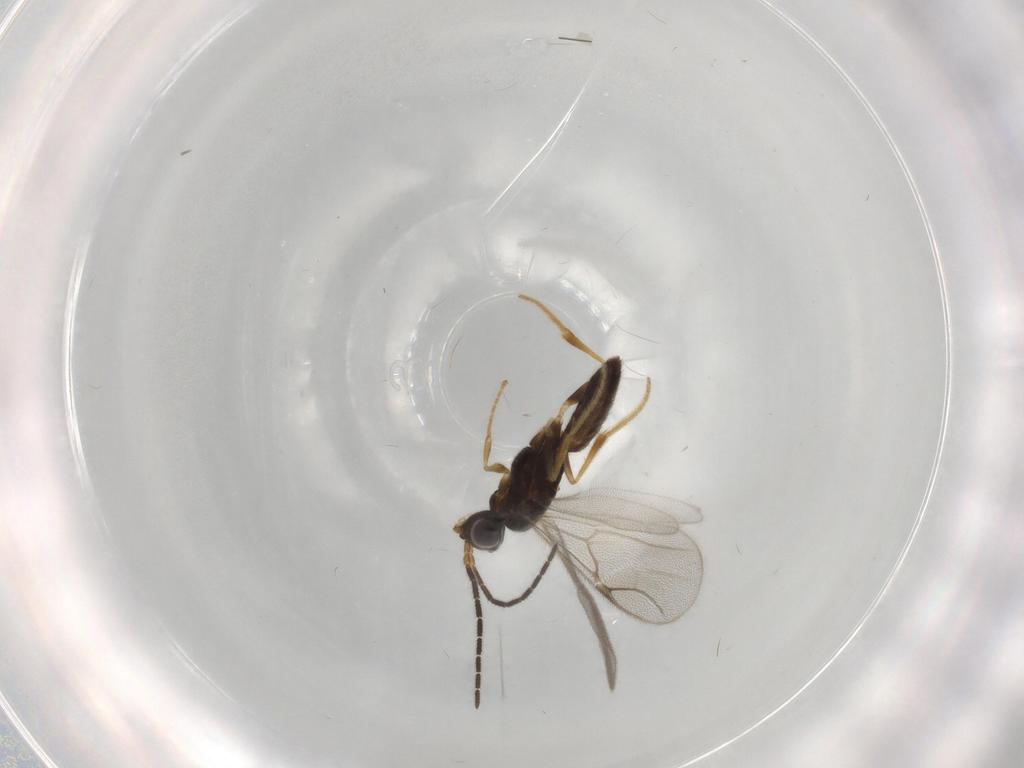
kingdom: Animalia
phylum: Arthropoda
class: Insecta
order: Hymenoptera
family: Dryinidae
